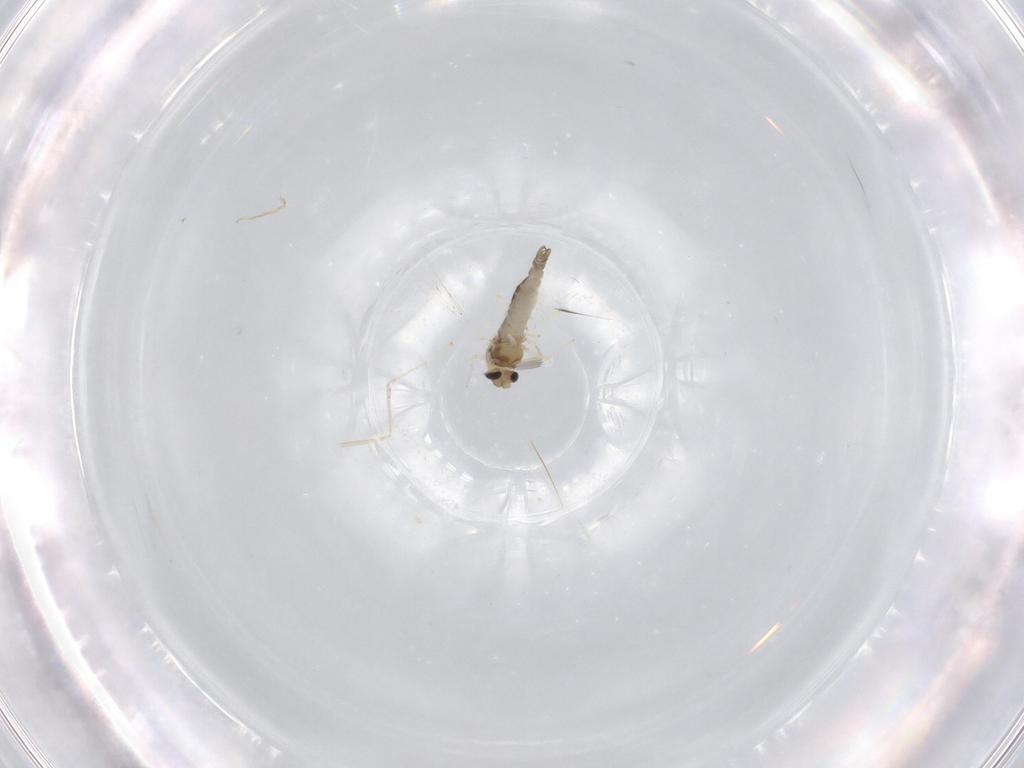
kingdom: Animalia
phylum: Arthropoda
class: Insecta
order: Diptera
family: Chironomidae
